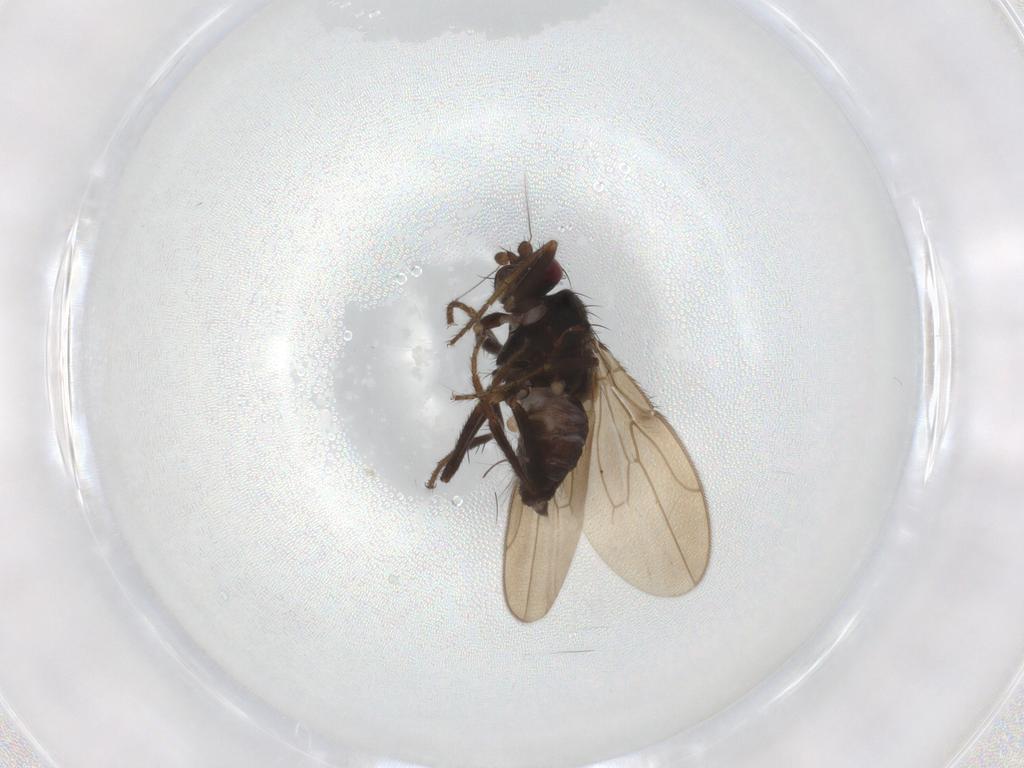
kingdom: Animalia
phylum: Arthropoda
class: Insecta
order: Diptera
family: Sphaeroceridae
